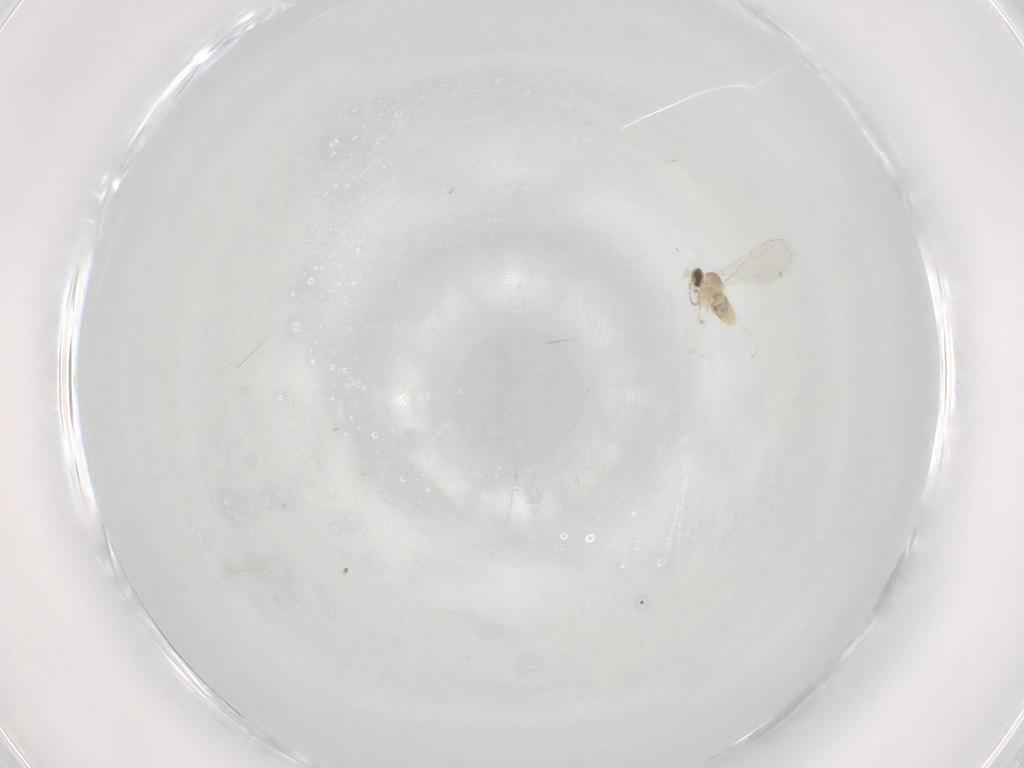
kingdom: Animalia
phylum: Arthropoda
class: Insecta
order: Diptera
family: Cecidomyiidae
